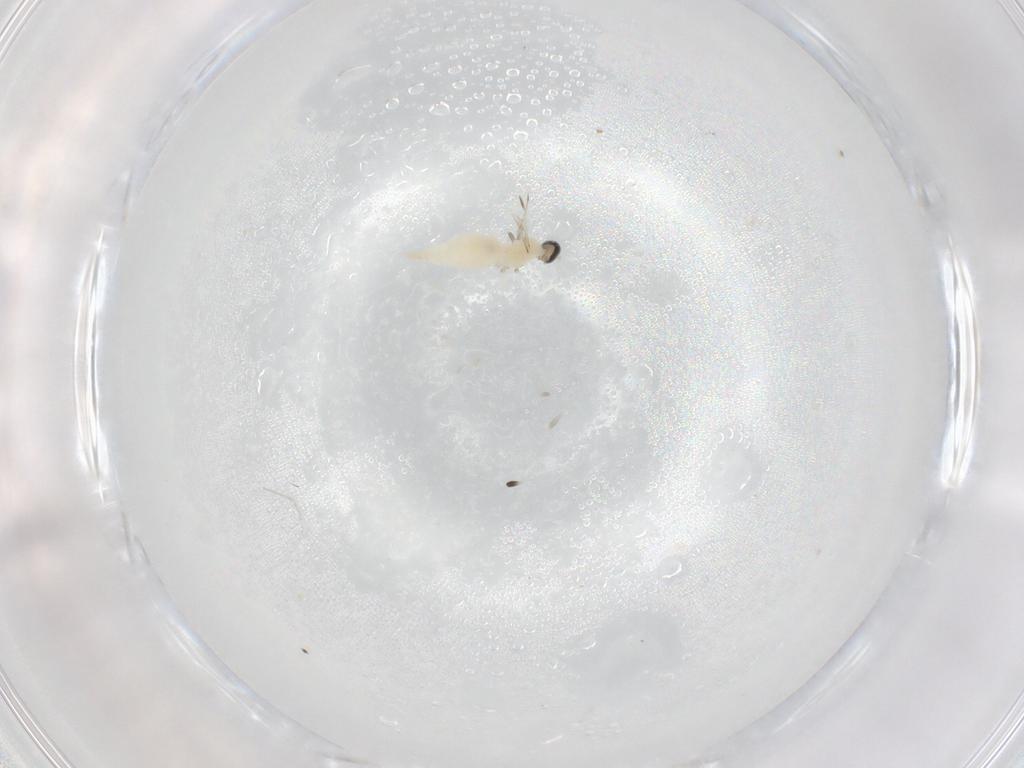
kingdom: Animalia
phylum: Arthropoda
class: Insecta
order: Diptera
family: Cecidomyiidae
